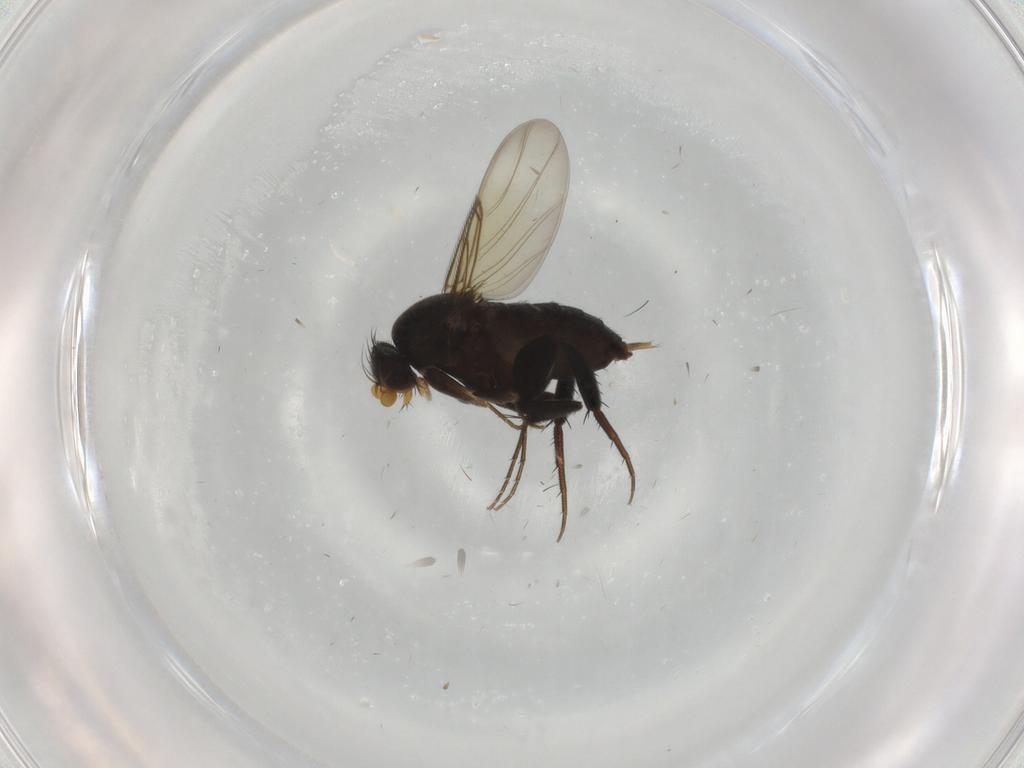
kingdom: Animalia
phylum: Arthropoda
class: Insecta
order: Diptera
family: Phoridae
